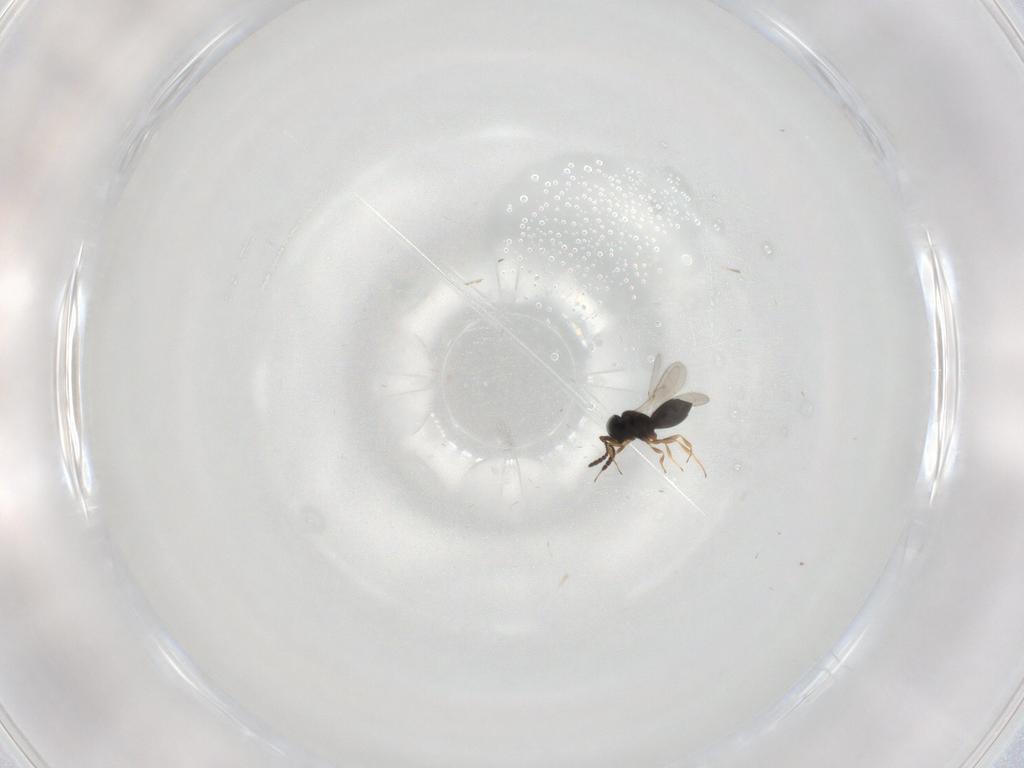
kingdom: Animalia
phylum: Arthropoda
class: Insecta
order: Hymenoptera
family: Scelionidae
